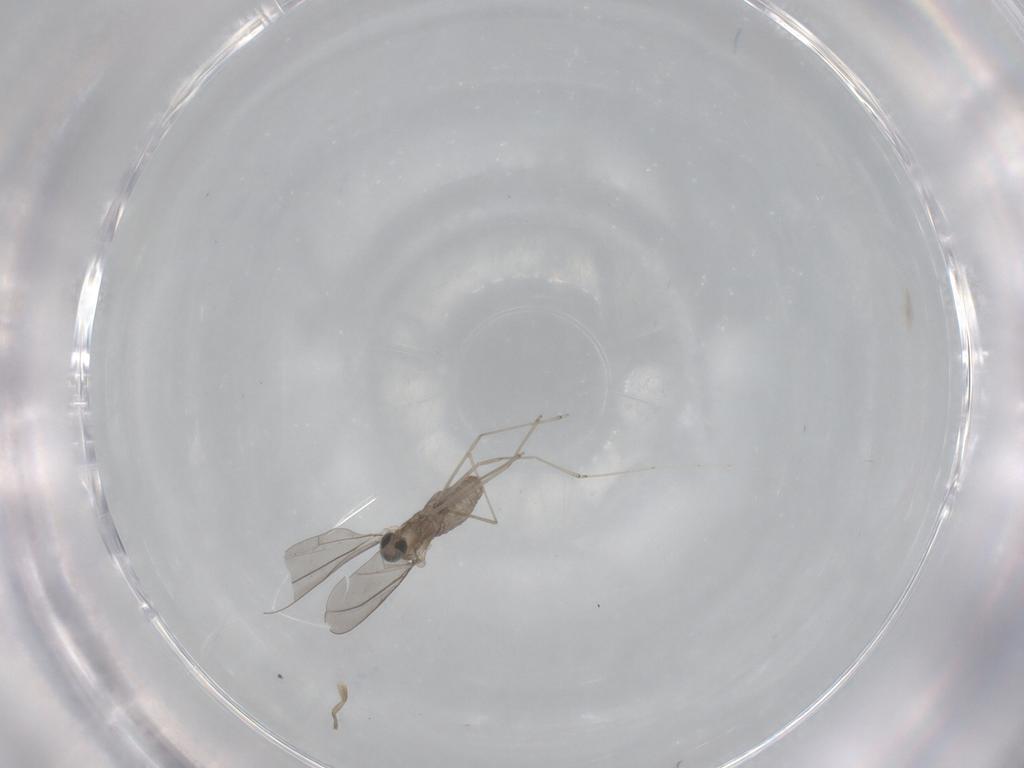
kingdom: Animalia
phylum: Arthropoda
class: Insecta
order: Diptera
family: Cecidomyiidae
